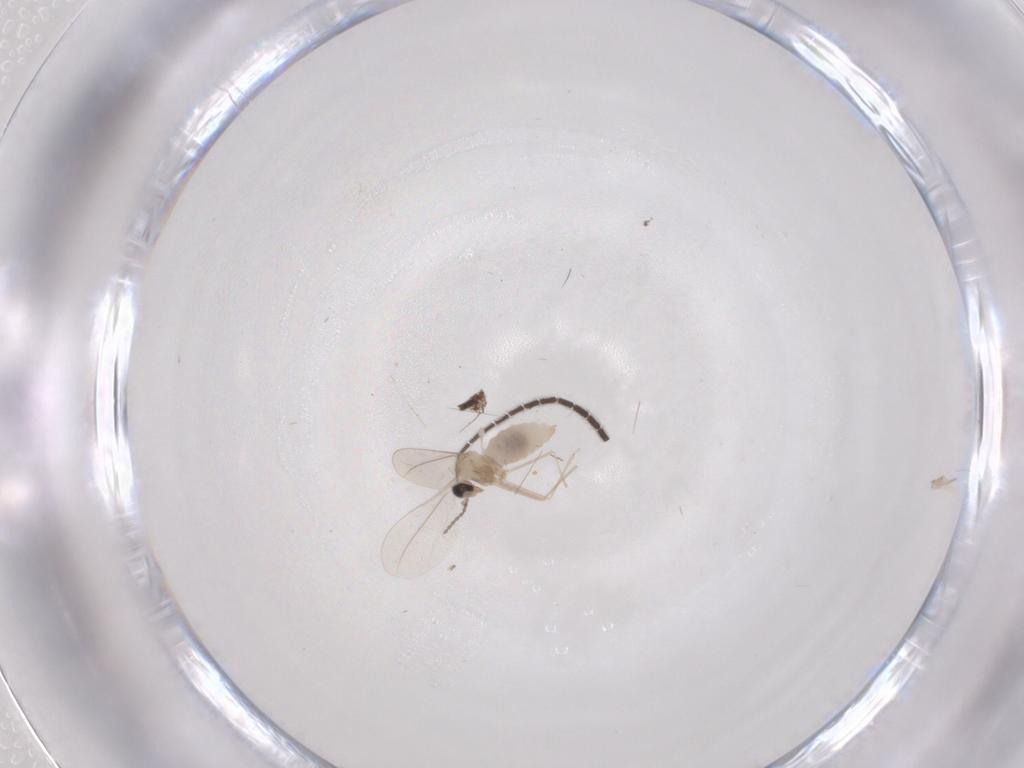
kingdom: Animalia
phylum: Arthropoda
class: Insecta
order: Diptera
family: Sciaridae
